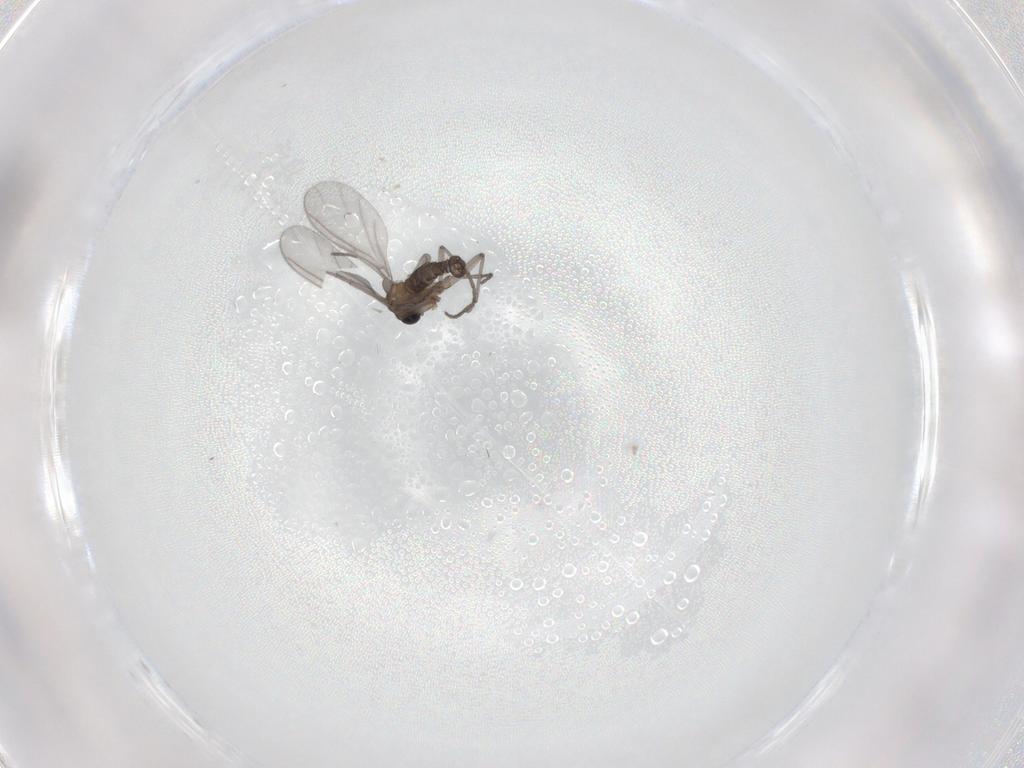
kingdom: Animalia
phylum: Arthropoda
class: Insecta
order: Diptera
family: Sciaridae
